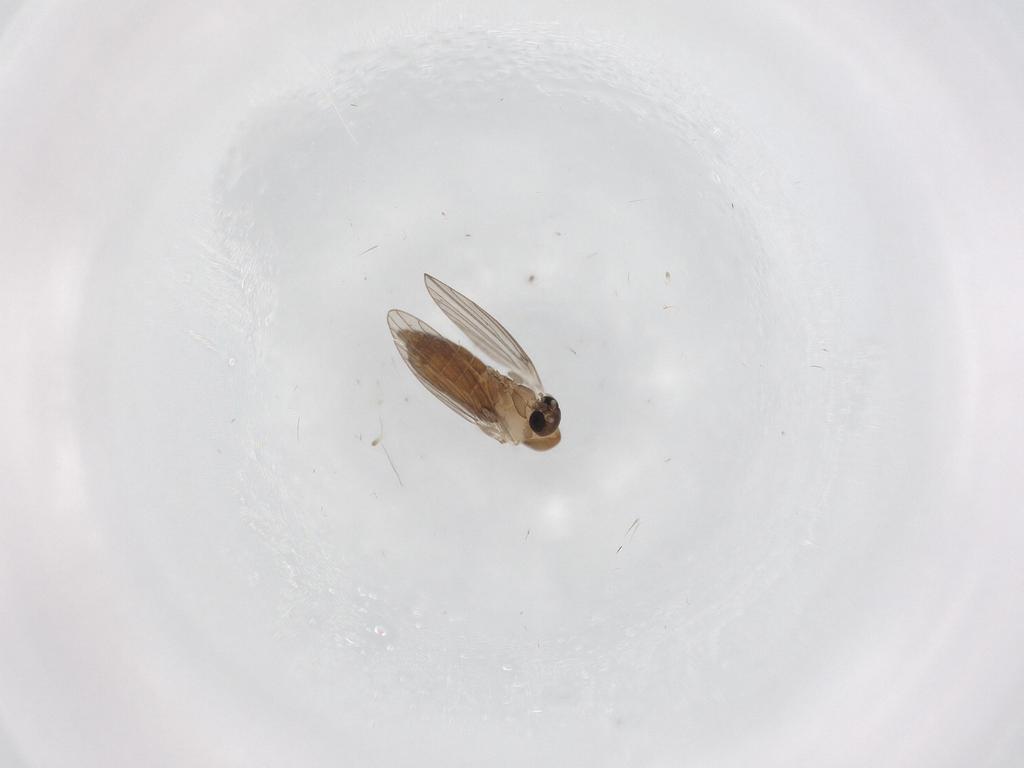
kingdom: Animalia
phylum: Arthropoda
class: Insecta
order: Diptera
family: Psychodidae
